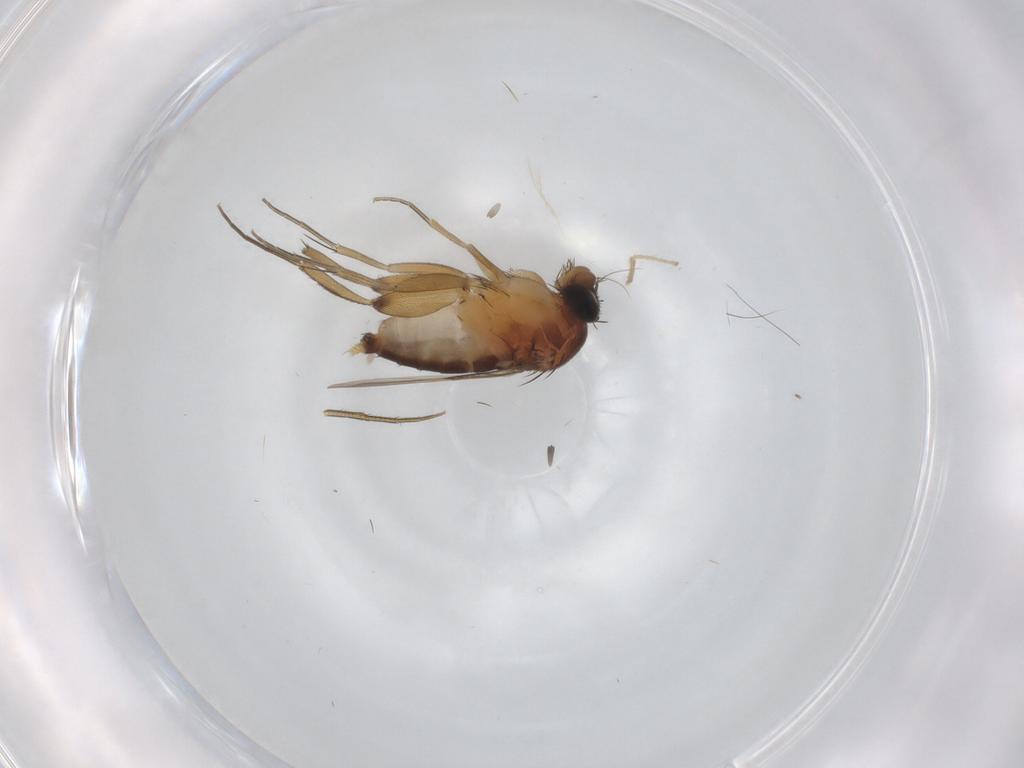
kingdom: Animalia
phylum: Arthropoda
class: Insecta
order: Diptera
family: Phoridae
